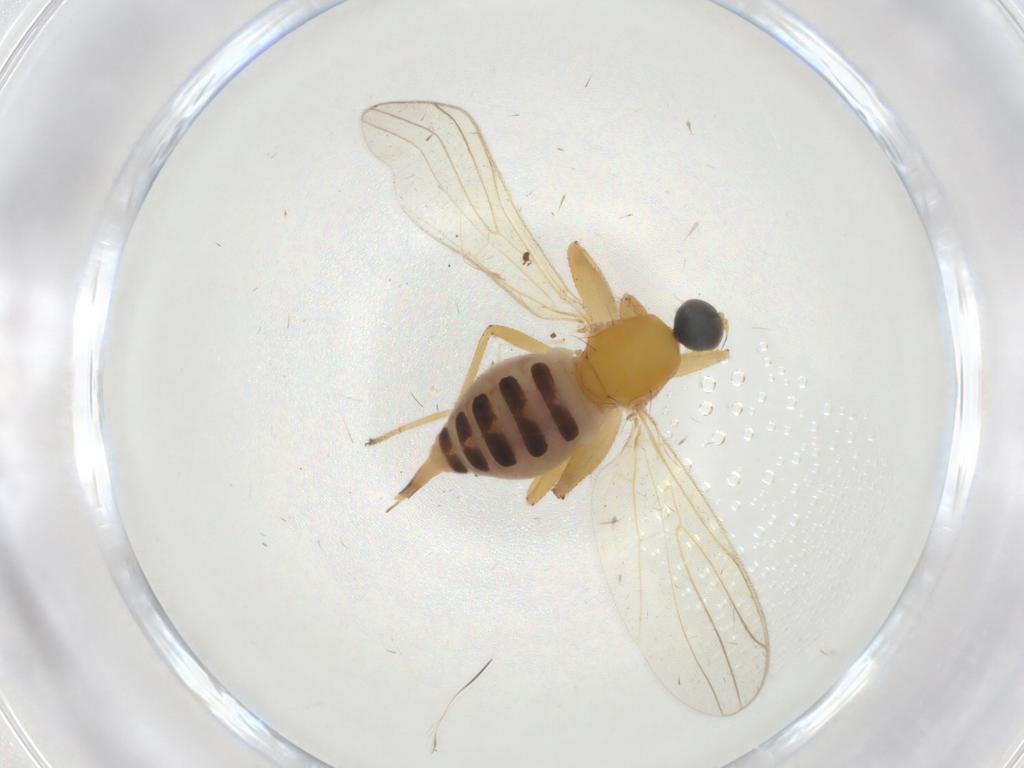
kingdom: Animalia
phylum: Arthropoda
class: Insecta
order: Diptera
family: Hybotidae
